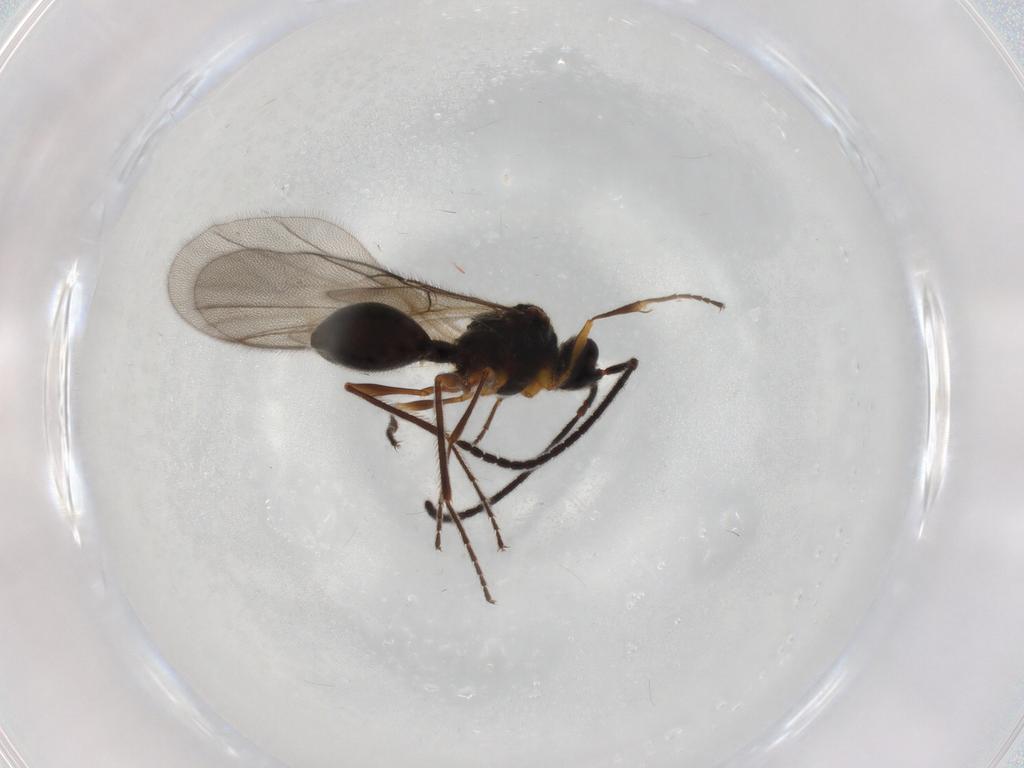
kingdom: Animalia
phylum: Arthropoda
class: Insecta
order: Hymenoptera
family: Diapriidae
